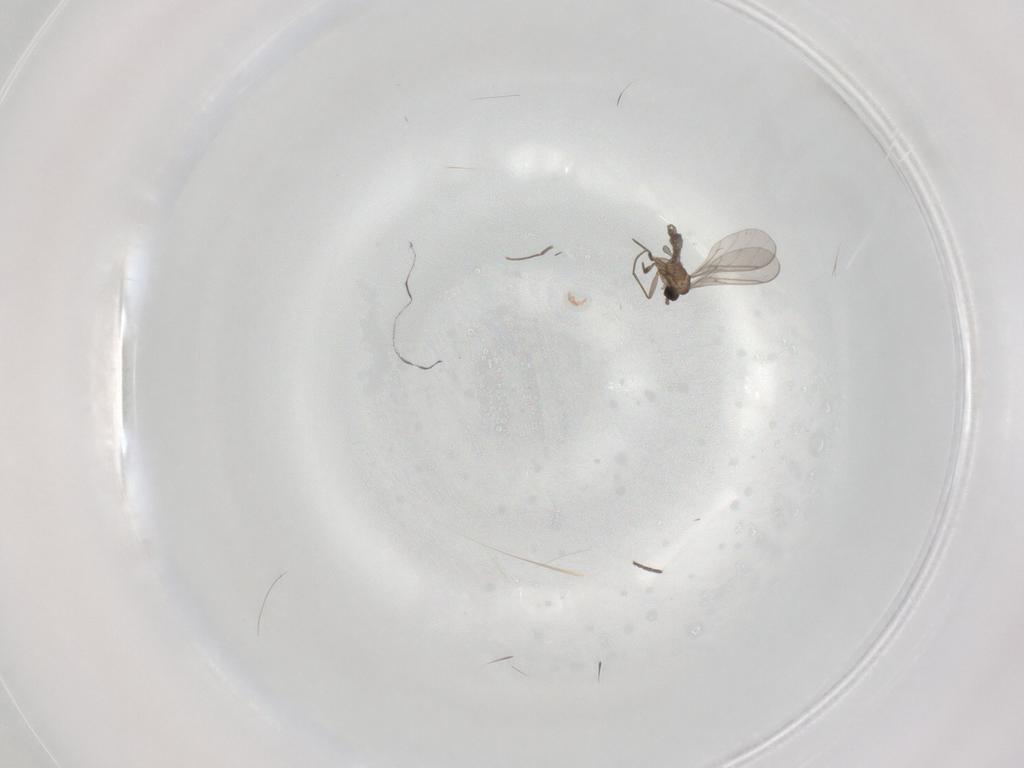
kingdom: Animalia
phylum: Arthropoda
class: Insecta
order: Diptera
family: Sciaridae
